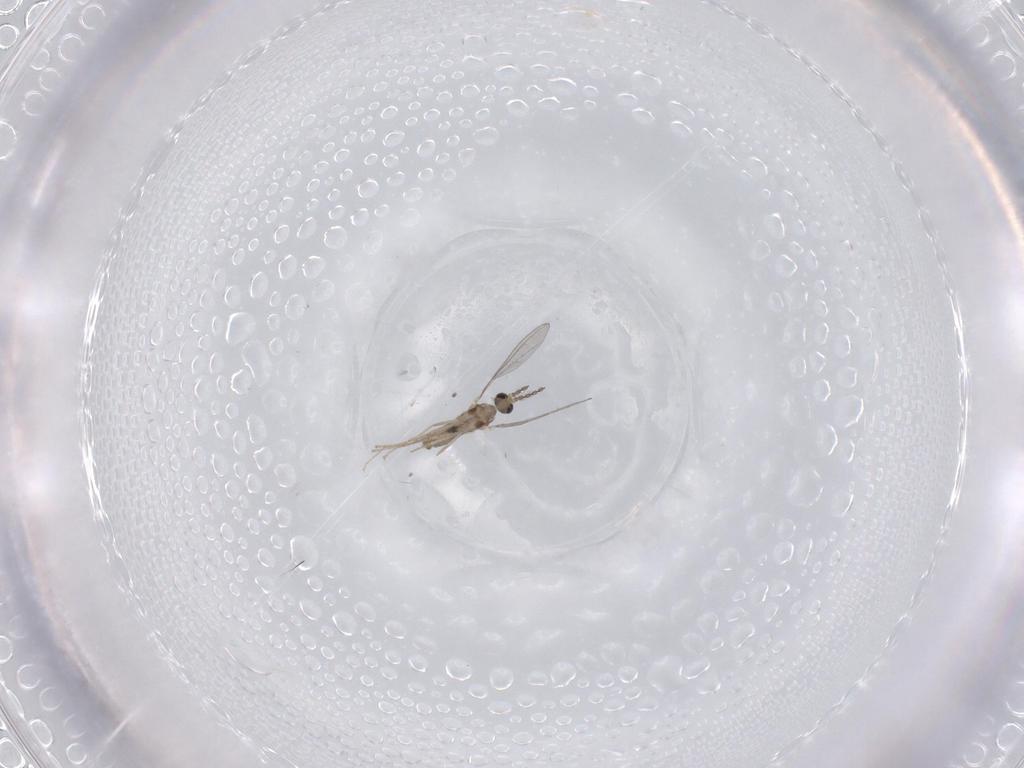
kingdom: Animalia
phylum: Arthropoda
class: Insecta
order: Diptera
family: Cecidomyiidae
